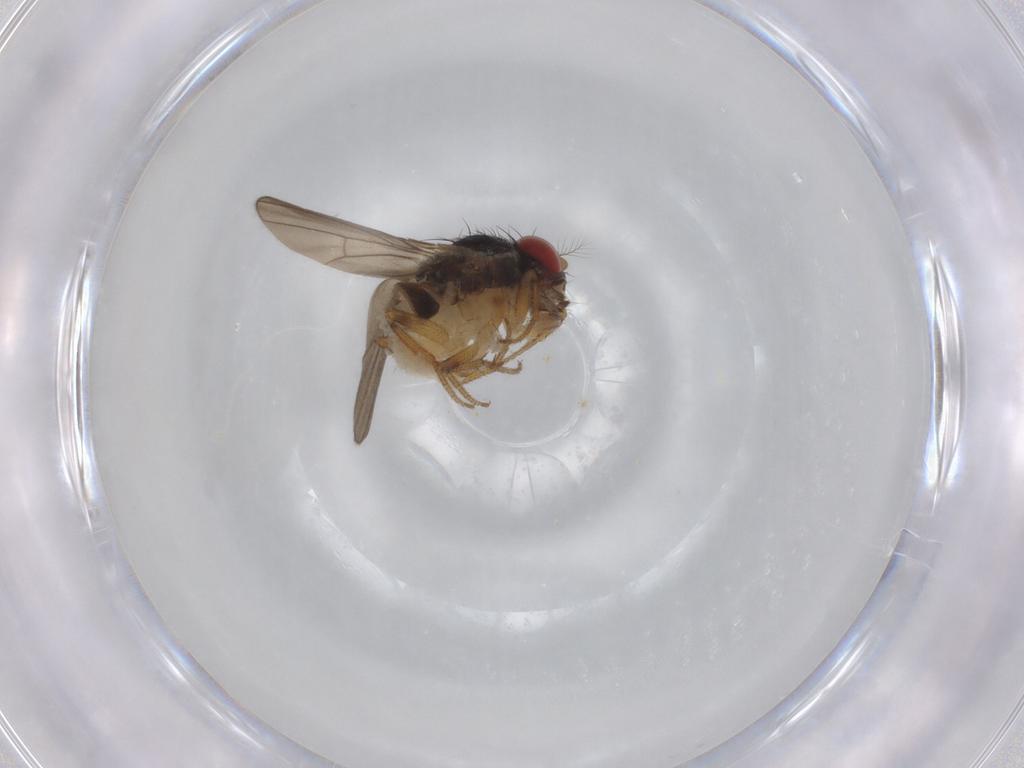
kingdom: Animalia
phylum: Arthropoda
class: Insecta
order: Diptera
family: Drosophilidae
